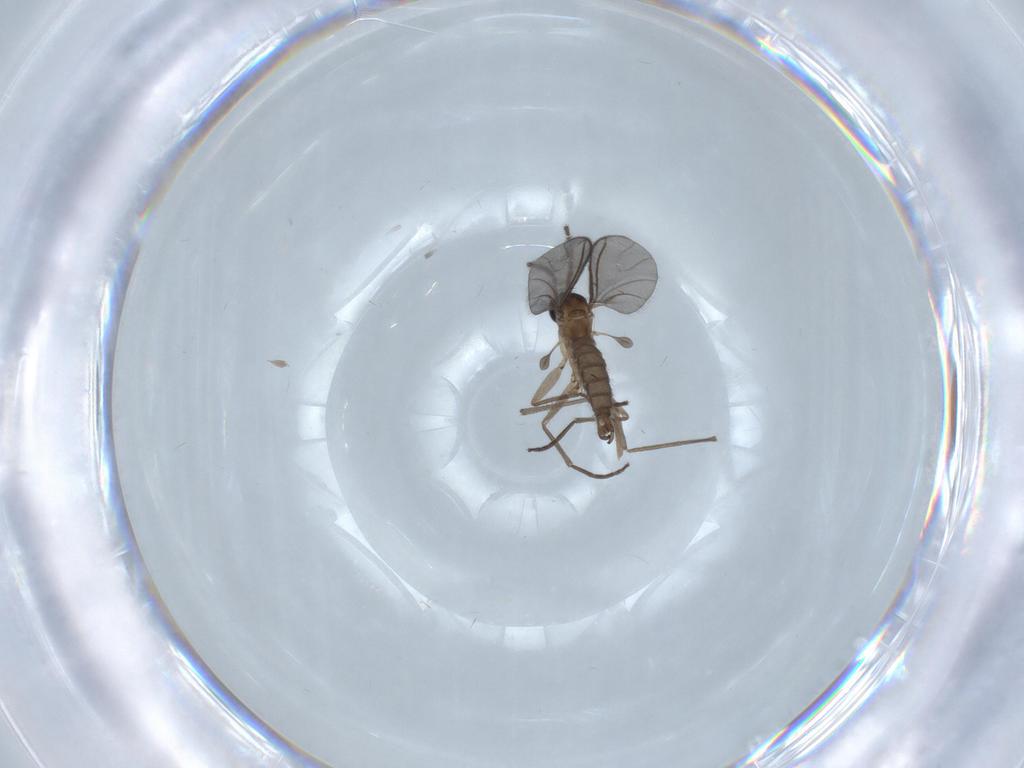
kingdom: Animalia
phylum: Arthropoda
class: Insecta
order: Diptera
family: Sciaridae
